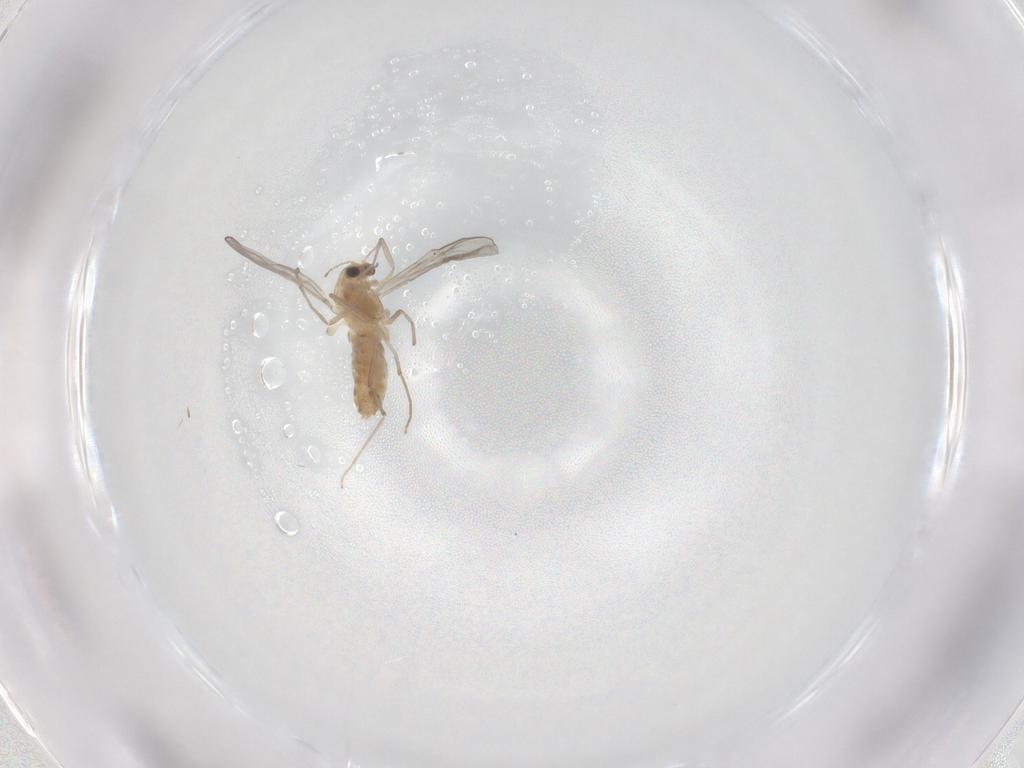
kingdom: Animalia
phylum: Arthropoda
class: Insecta
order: Diptera
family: Chironomidae
